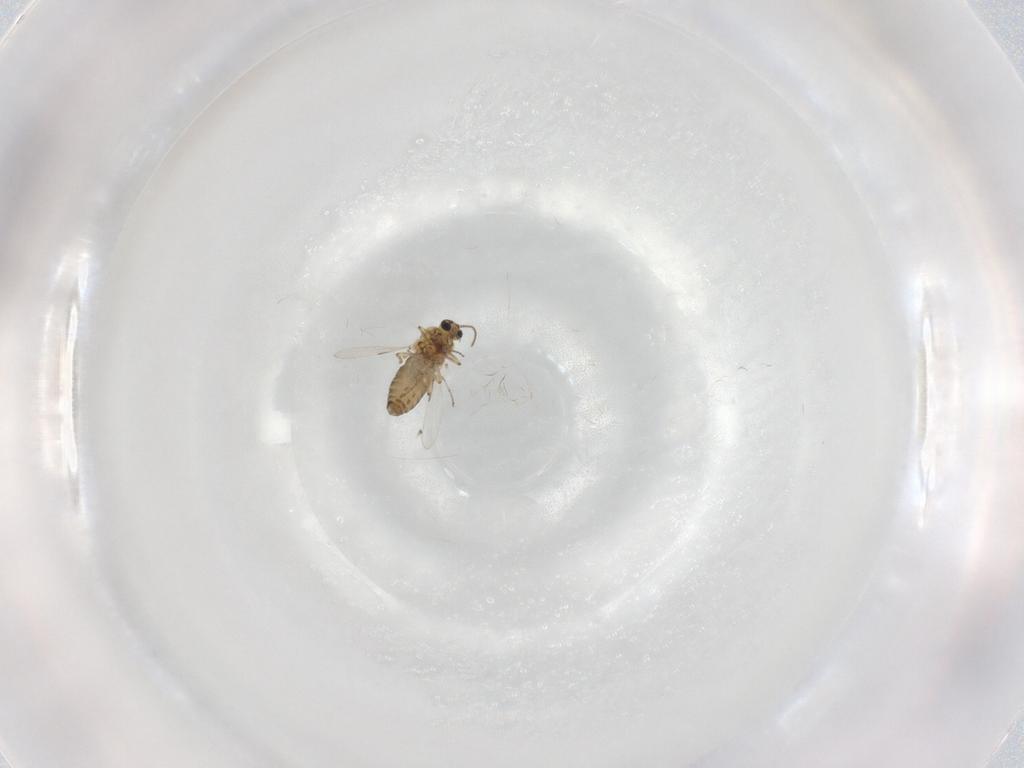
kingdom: Animalia
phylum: Arthropoda
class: Insecta
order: Diptera
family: Ceratopogonidae
